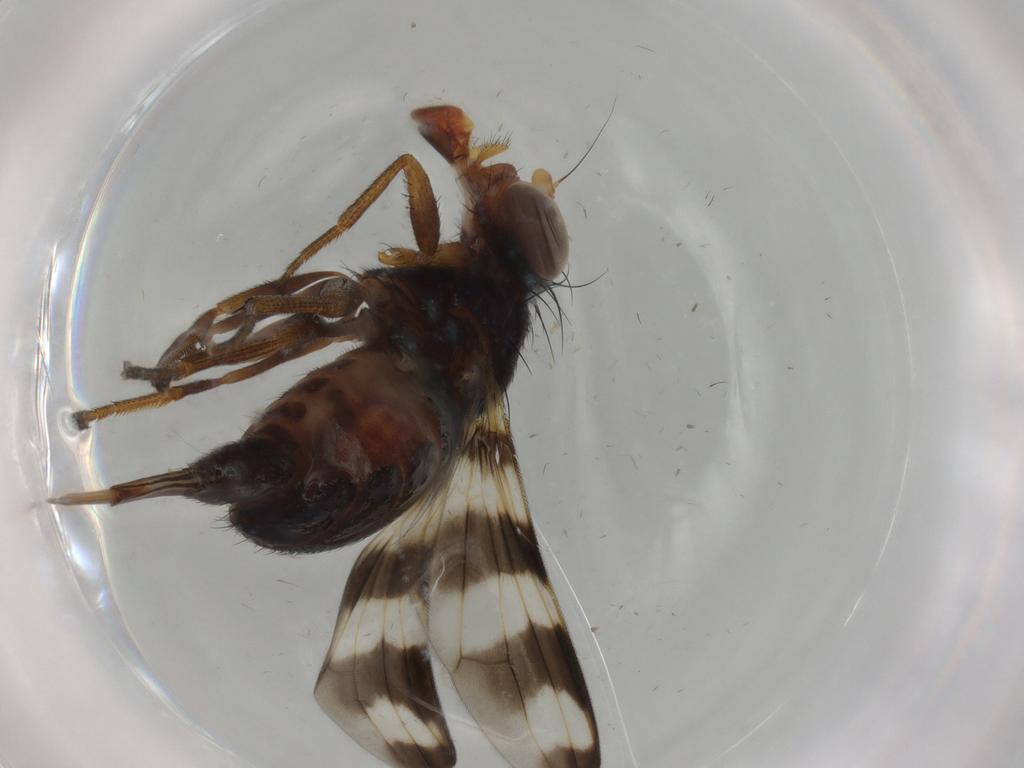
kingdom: Animalia
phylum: Arthropoda
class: Insecta
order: Diptera
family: Ulidiidae
